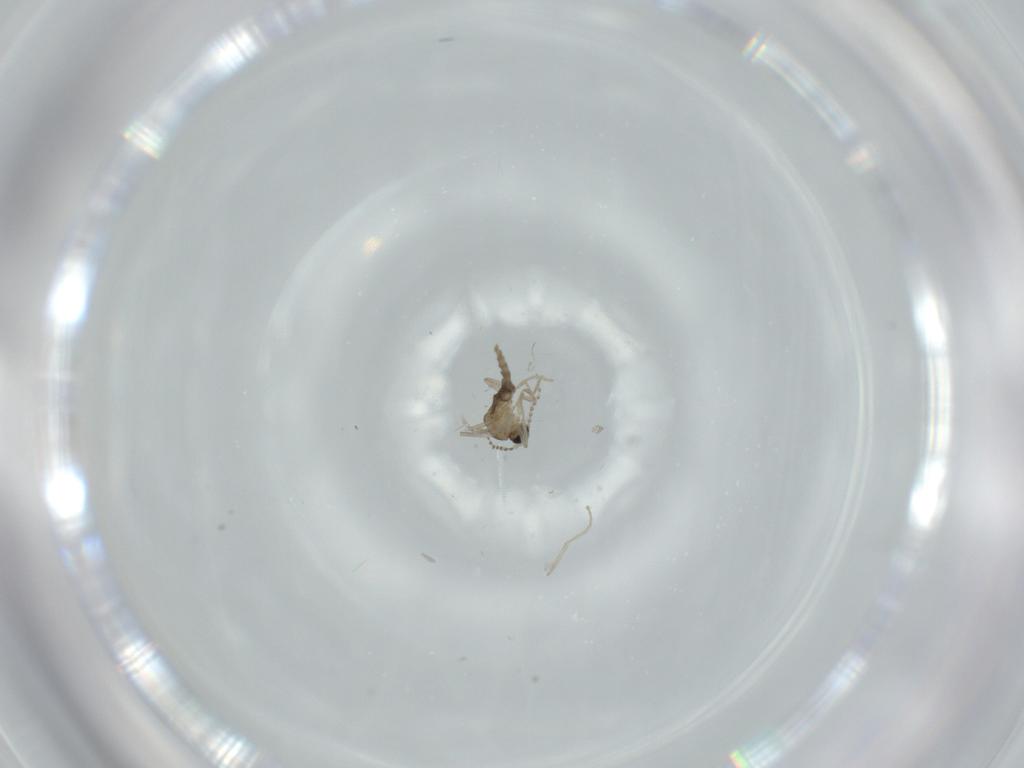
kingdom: Animalia
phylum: Arthropoda
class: Insecta
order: Diptera
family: Cecidomyiidae
